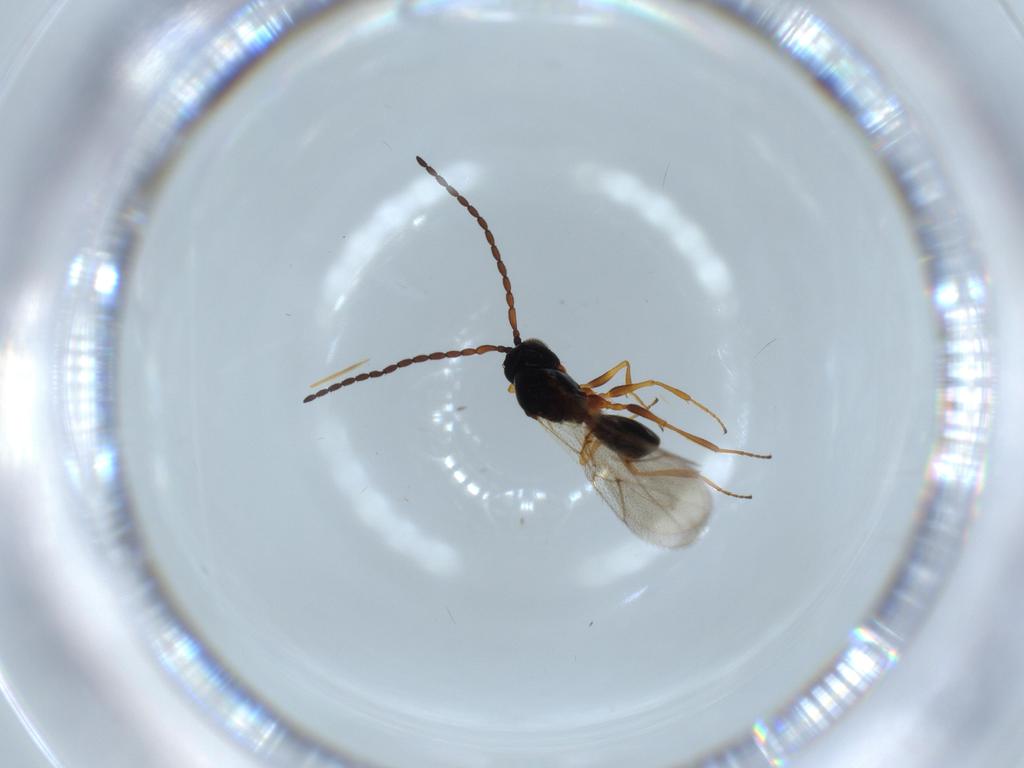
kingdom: Animalia
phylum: Arthropoda
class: Insecta
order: Hymenoptera
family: Figitidae
